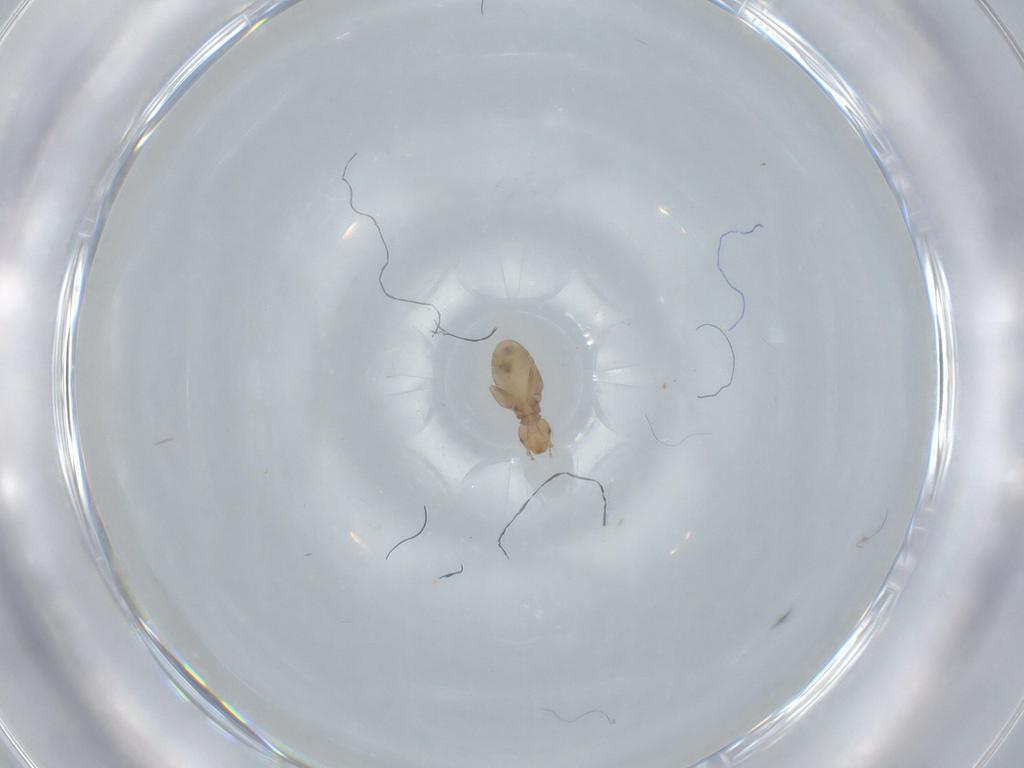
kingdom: Animalia
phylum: Arthropoda
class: Insecta
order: Psocodea
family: Liposcelididae
